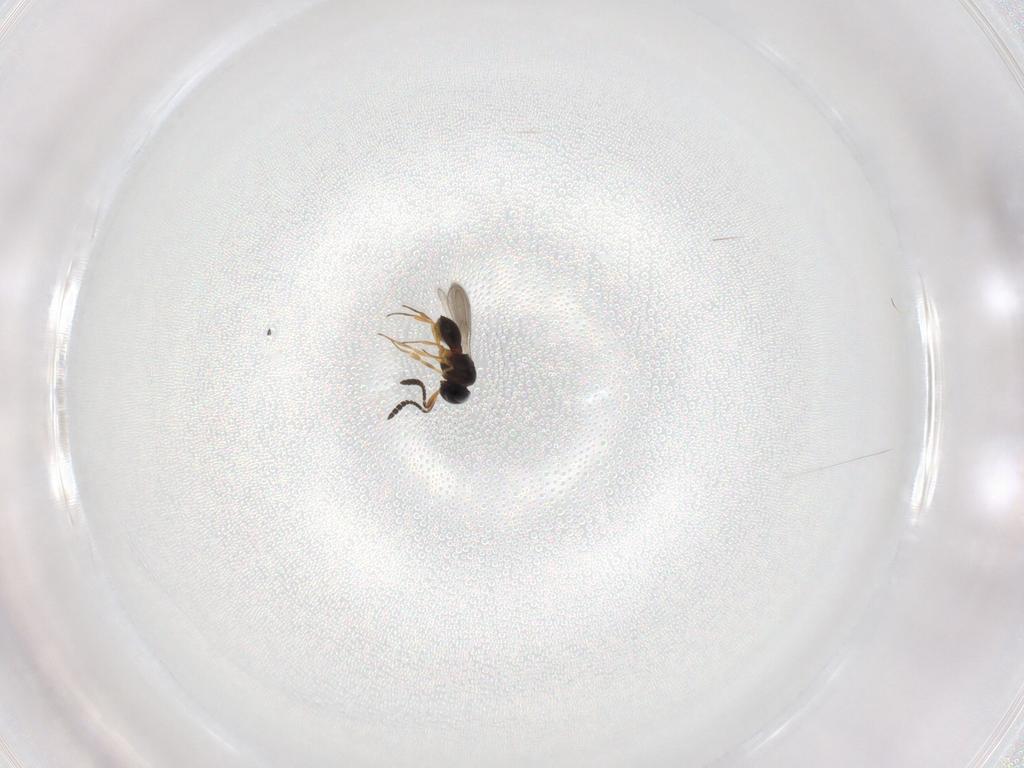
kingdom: Animalia
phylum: Arthropoda
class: Insecta
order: Hymenoptera
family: Scelionidae
